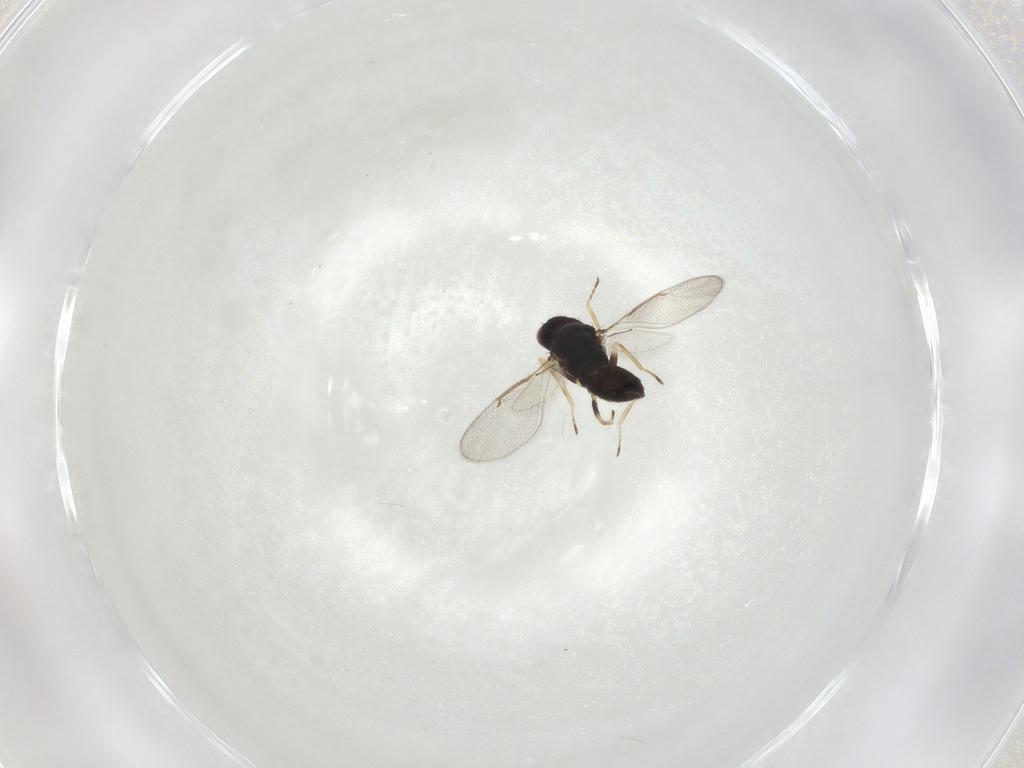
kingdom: Animalia
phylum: Arthropoda
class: Insecta
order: Hymenoptera
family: Eulophidae
